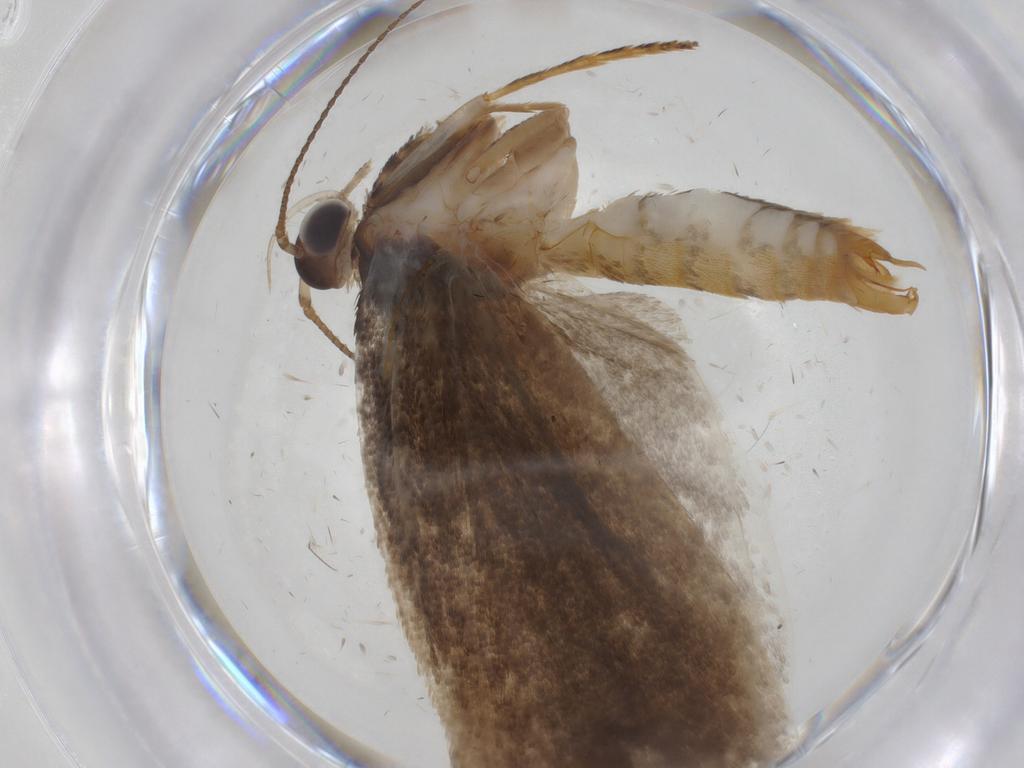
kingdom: Animalia
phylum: Arthropoda
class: Insecta
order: Lepidoptera
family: Oecophoridae
